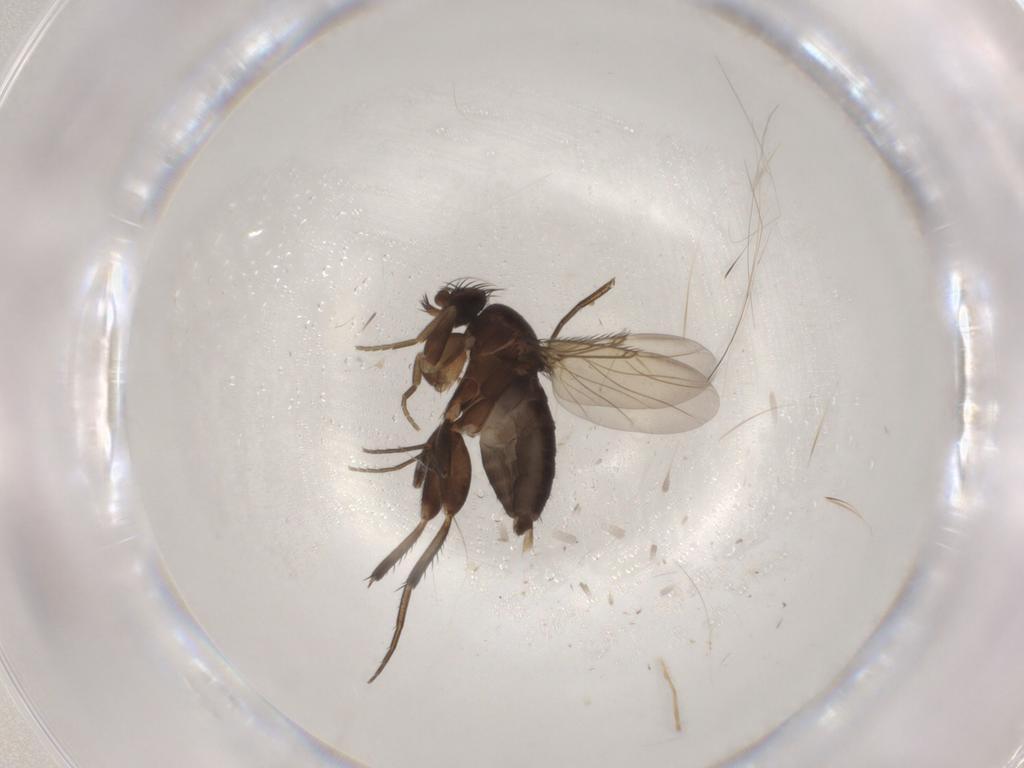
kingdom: Animalia
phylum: Arthropoda
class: Insecta
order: Diptera
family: Phoridae
